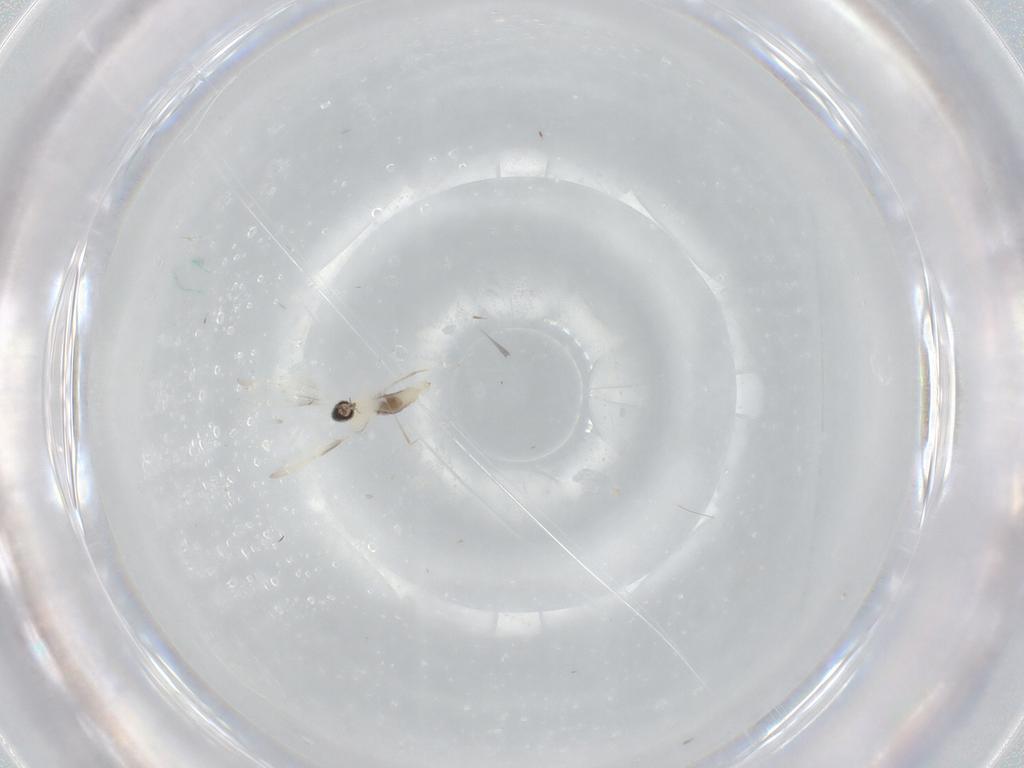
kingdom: Animalia
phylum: Arthropoda
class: Insecta
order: Diptera
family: Cecidomyiidae
